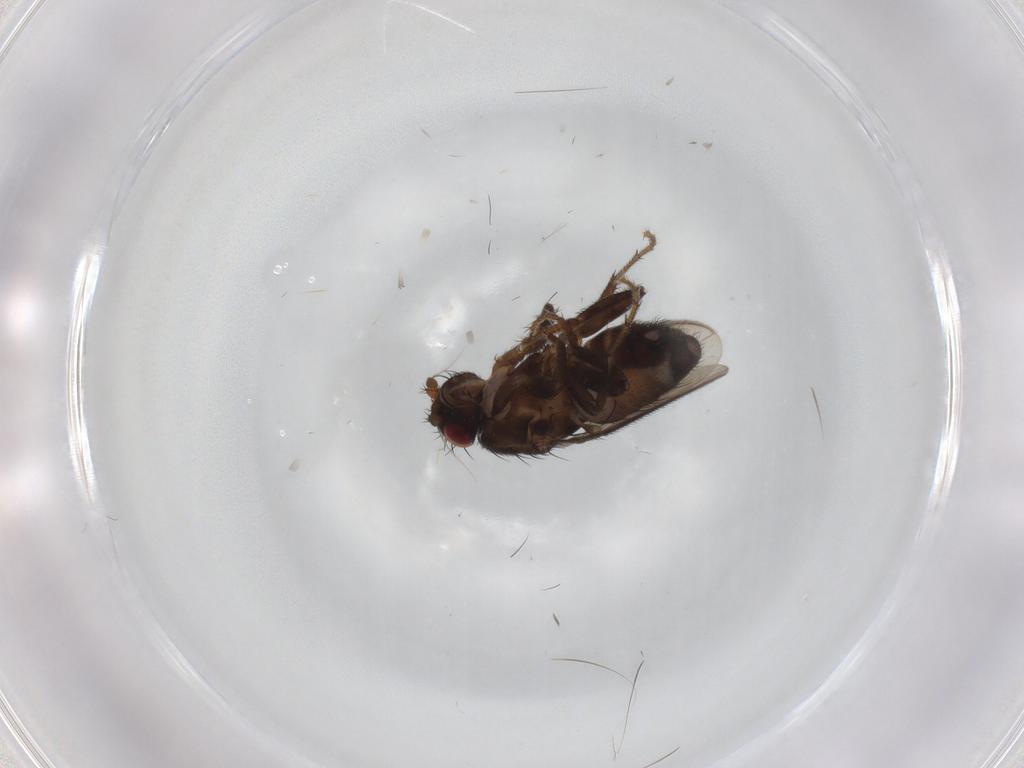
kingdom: Animalia
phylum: Arthropoda
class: Insecta
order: Diptera
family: Sphaeroceridae
